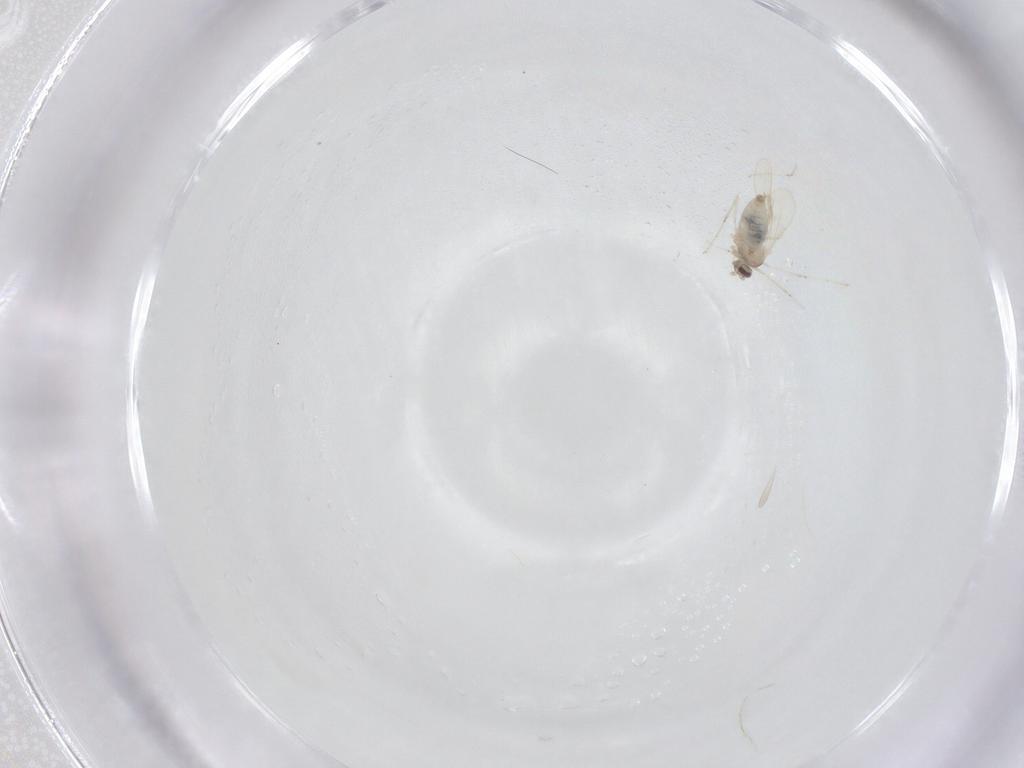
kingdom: Animalia
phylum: Arthropoda
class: Insecta
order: Diptera
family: Cecidomyiidae
